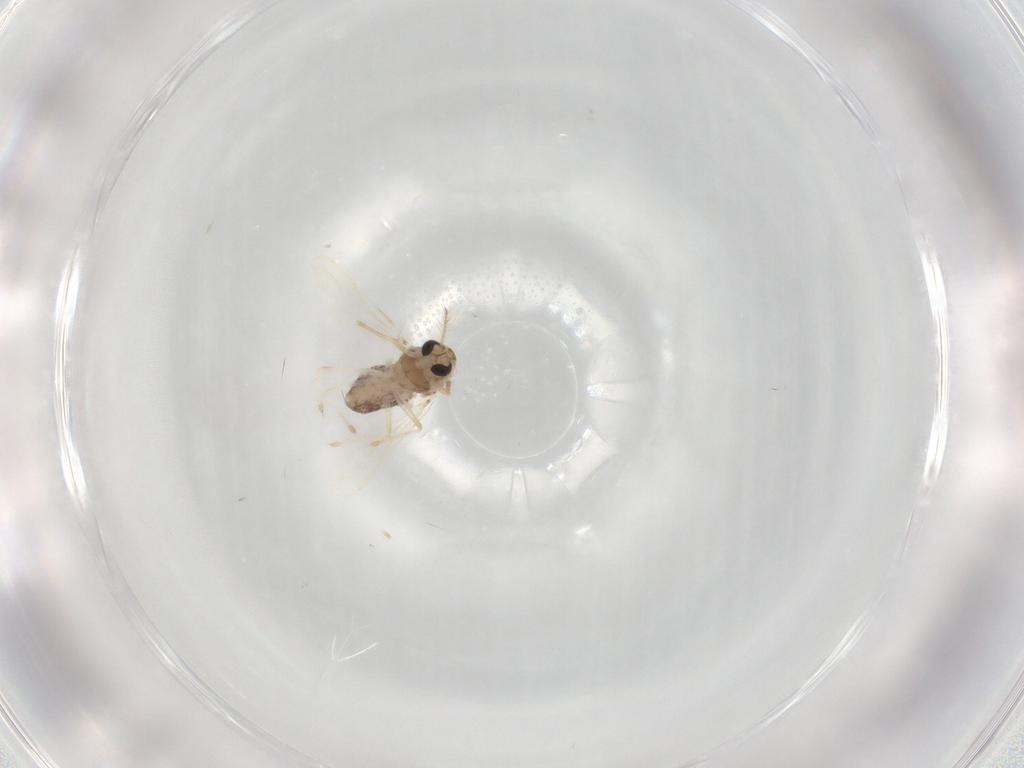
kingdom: Animalia
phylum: Arthropoda
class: Insecta
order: Diptera
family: Chironomidae
